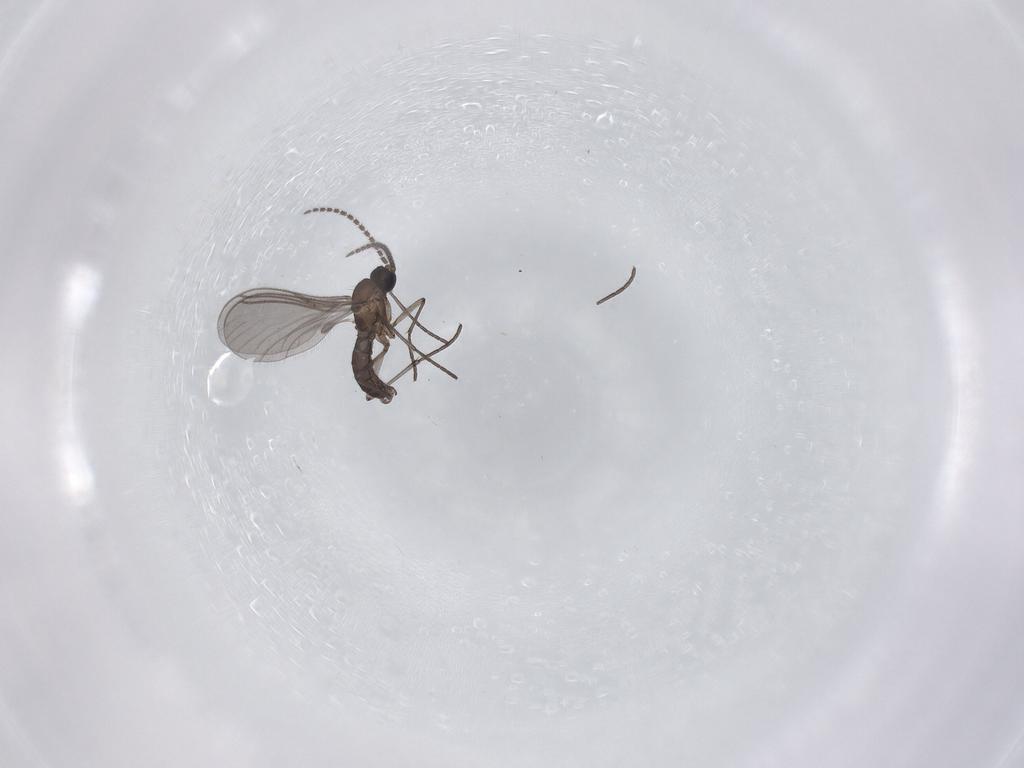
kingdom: Animalia
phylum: Arthropoda
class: Insecta
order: Diptera
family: Cecidomyiidae
